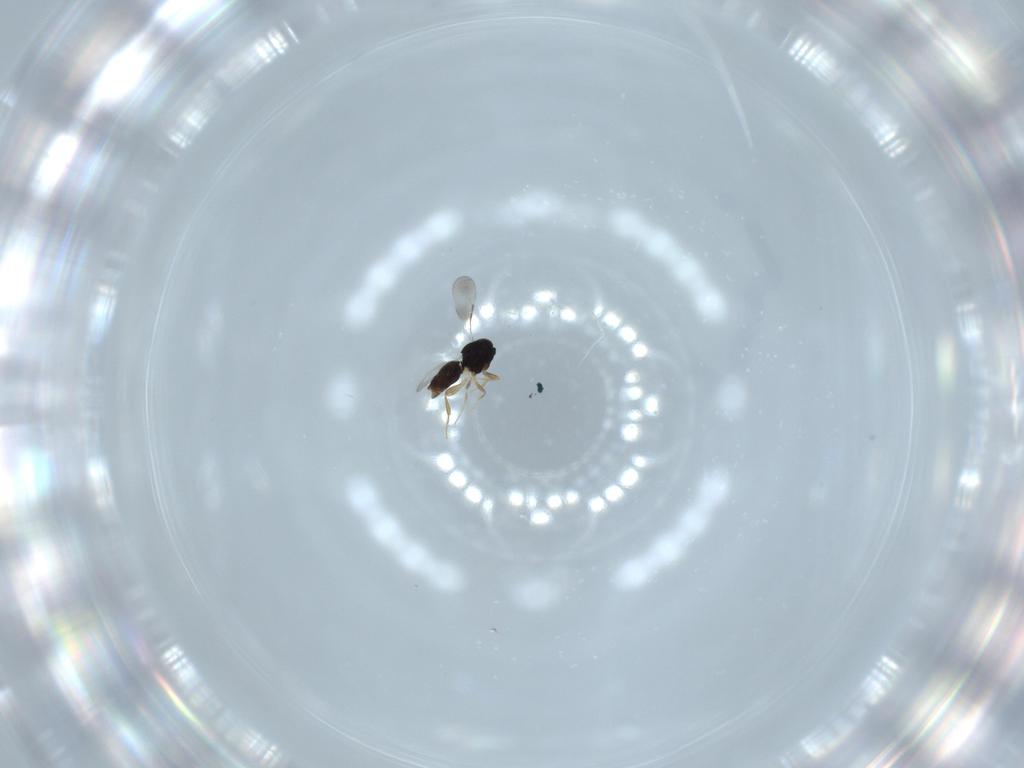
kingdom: Animalia
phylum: Arthropoda
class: Insecta
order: Hymenoptera
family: Ceraphronidae
